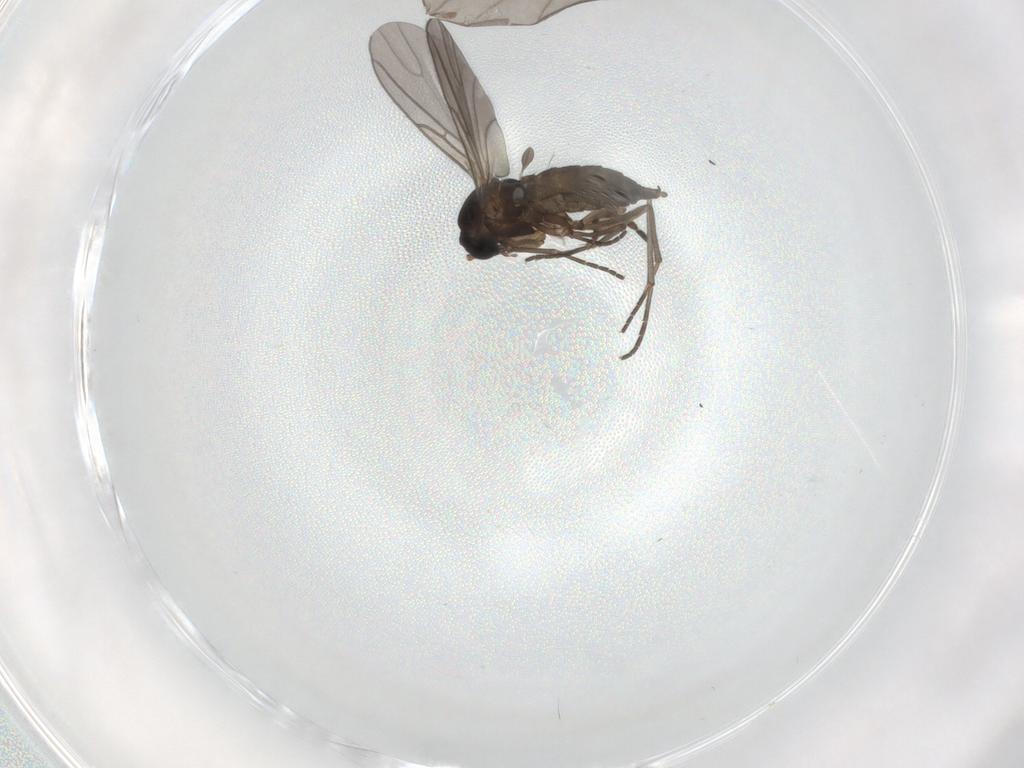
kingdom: Animalia
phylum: Arthropoda
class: Insecta
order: Diptera
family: Sciaridae
